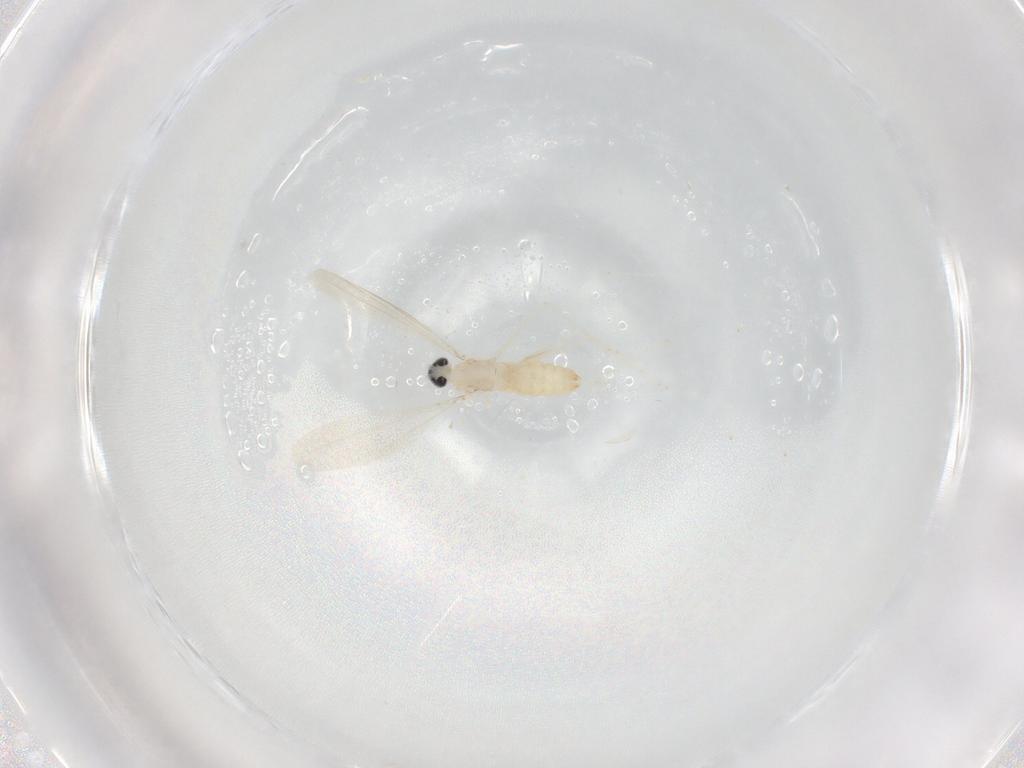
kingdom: Animalia
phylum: Arthropoda
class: Insecta
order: Diptera
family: Cecidomyiidae
